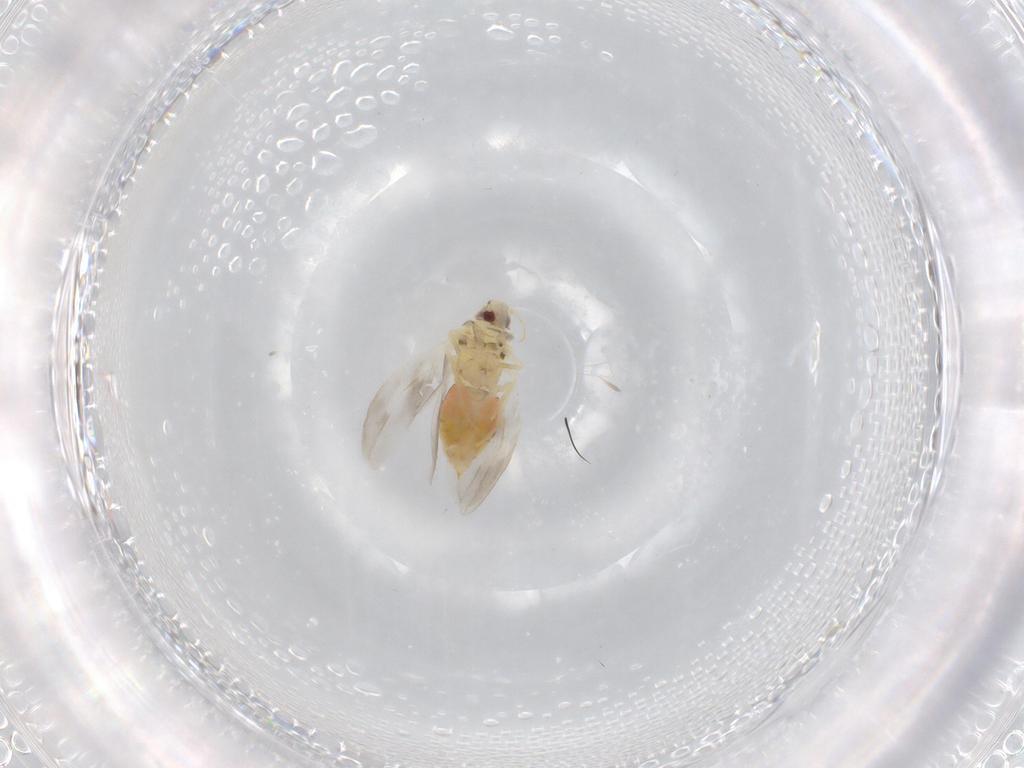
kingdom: Animalia
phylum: Arthropoda
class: Insecta
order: Hemiptera
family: Aleyrodidae
